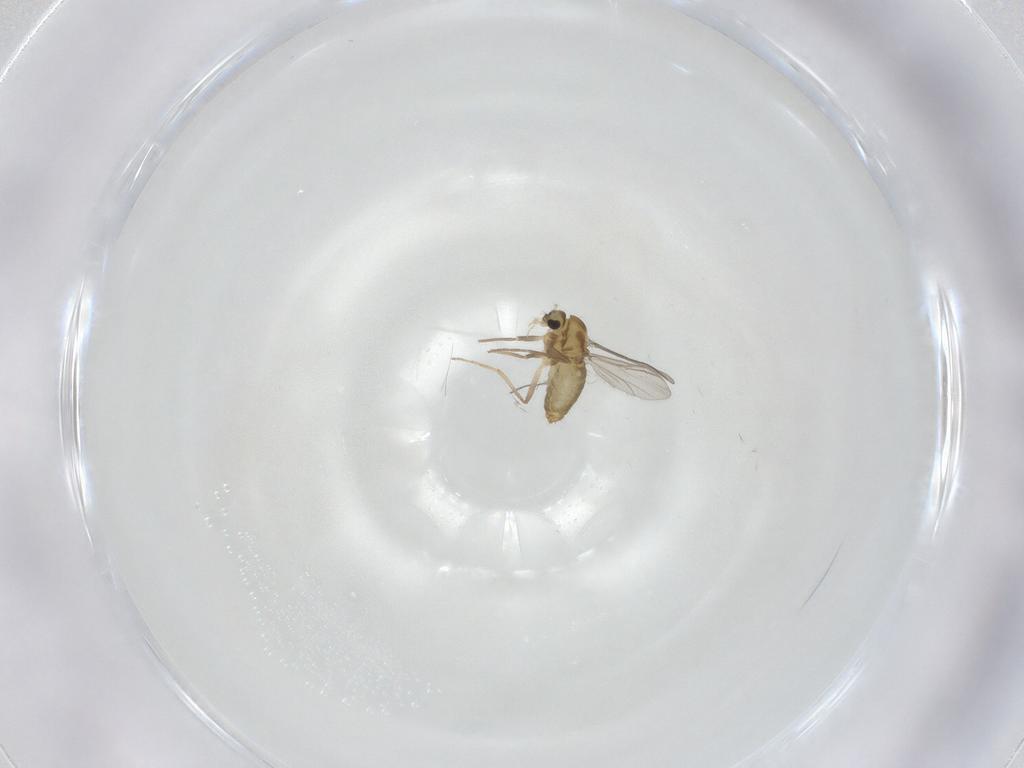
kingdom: Animalia
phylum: Arthropoda
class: Insecta
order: Diptera
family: Chironomidae
